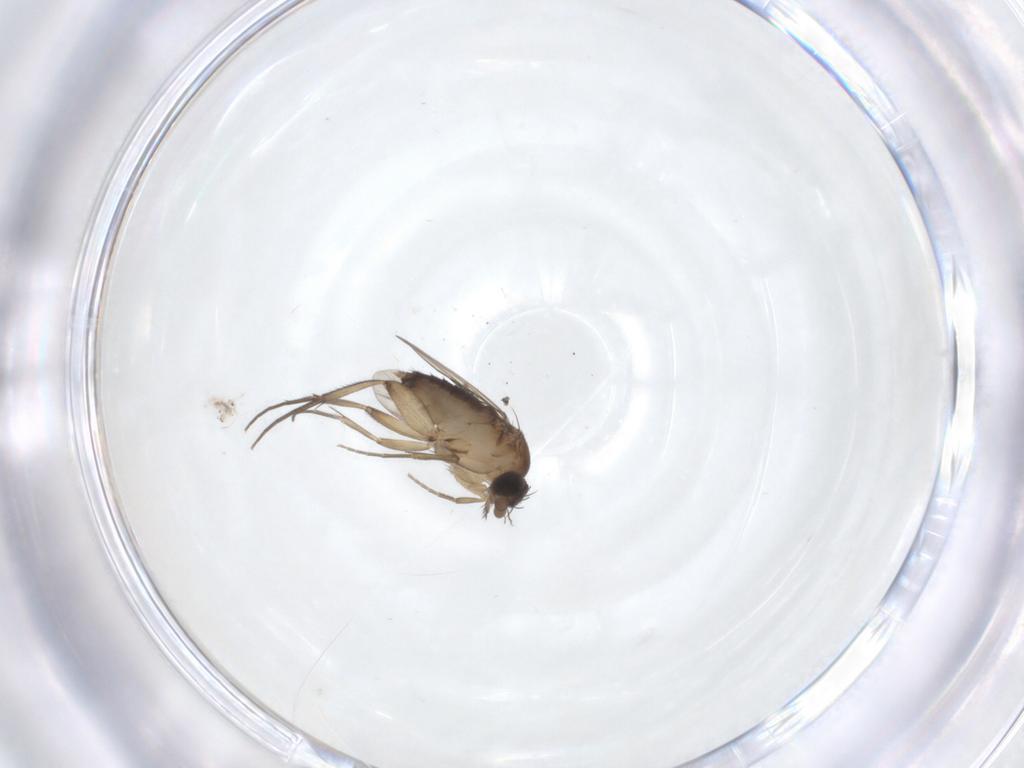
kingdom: Animalia
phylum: Arthropoda
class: Insecta
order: Diptera
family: Phoridae
